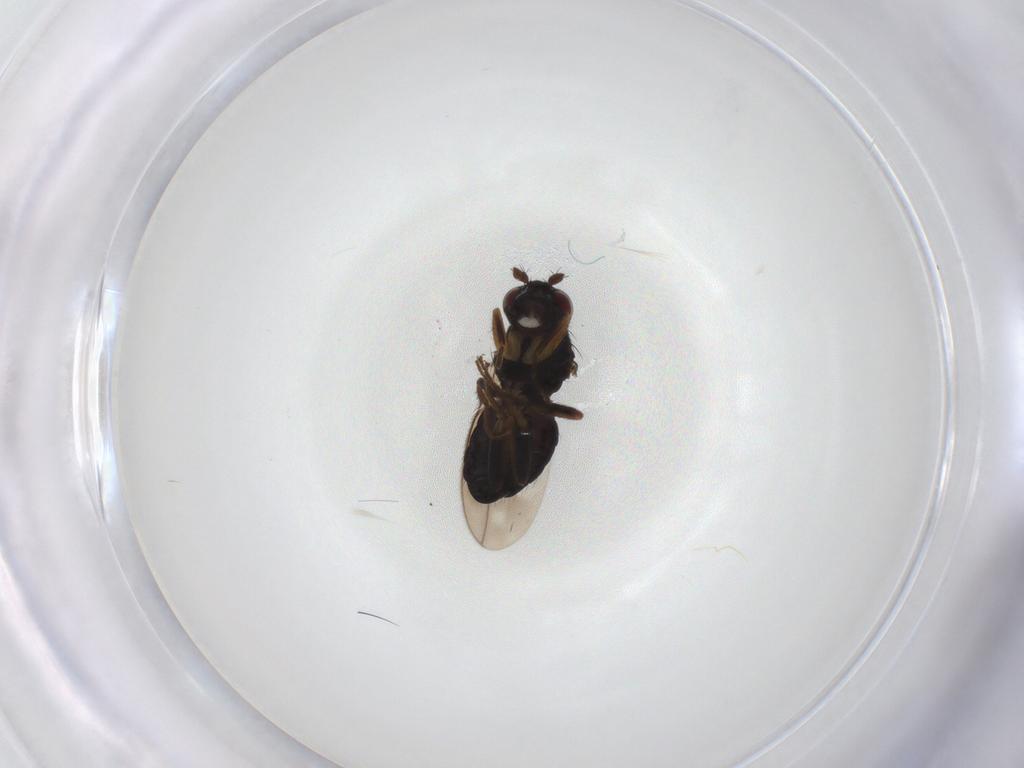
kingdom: Animalia
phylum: Arthropoda
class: Insecta
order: Diptera
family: Sphaeroceridae
